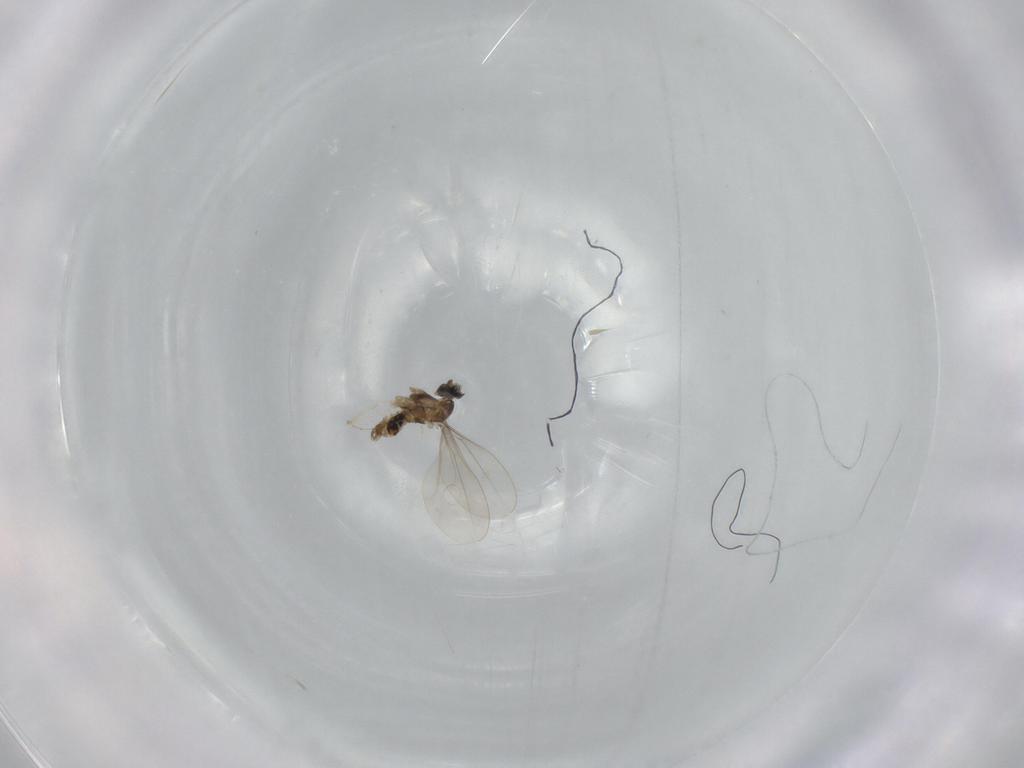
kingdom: Animalia
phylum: Arthropoda
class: Insecta
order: Diptera
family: Cecidomyiidae
